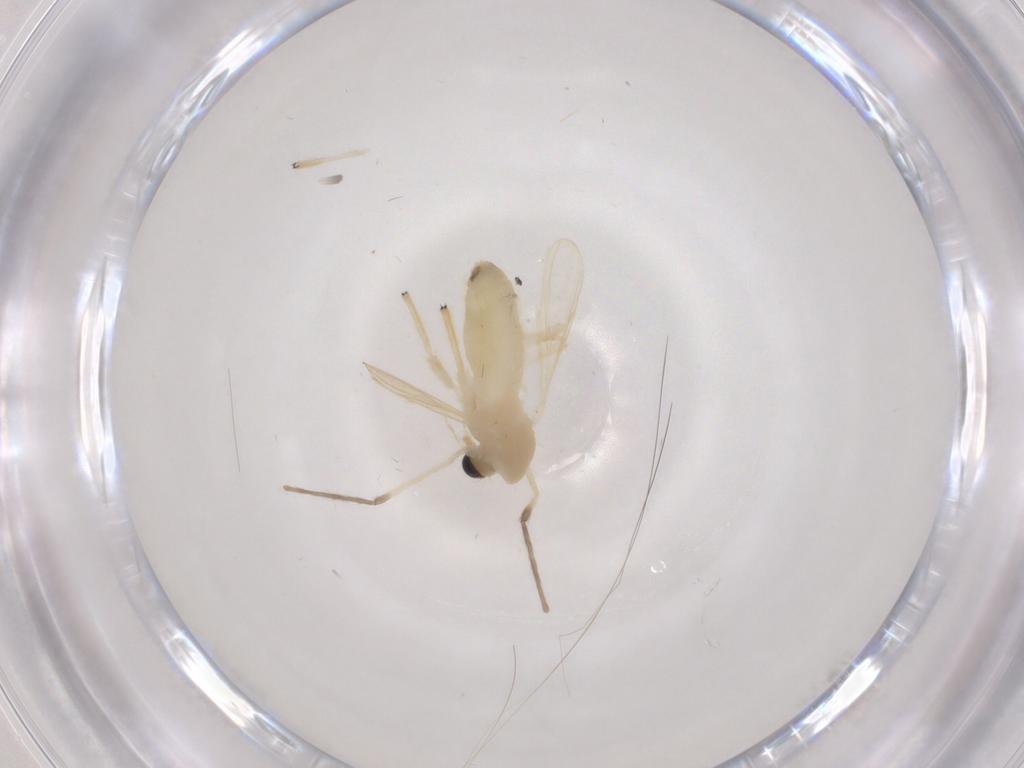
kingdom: Animalia
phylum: Arthropoda
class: Insecta
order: Diptera
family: Chironomidae
